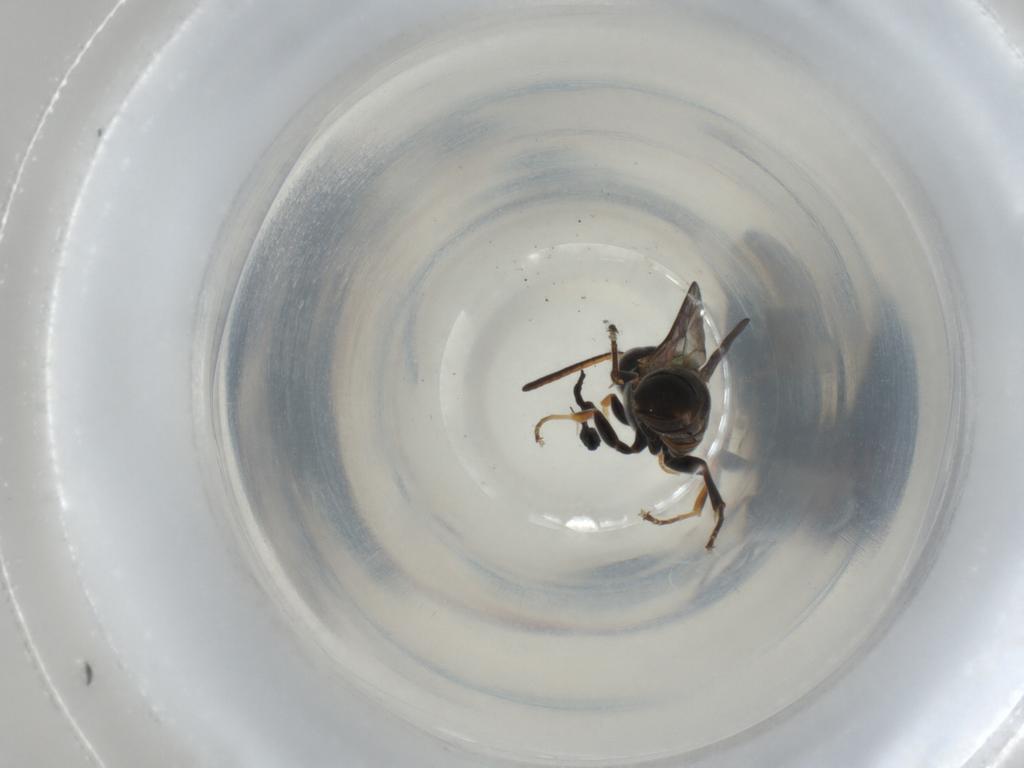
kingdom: Animalia
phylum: Arthropoda
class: Insecta
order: Hymenoptera
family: Crabronidae
